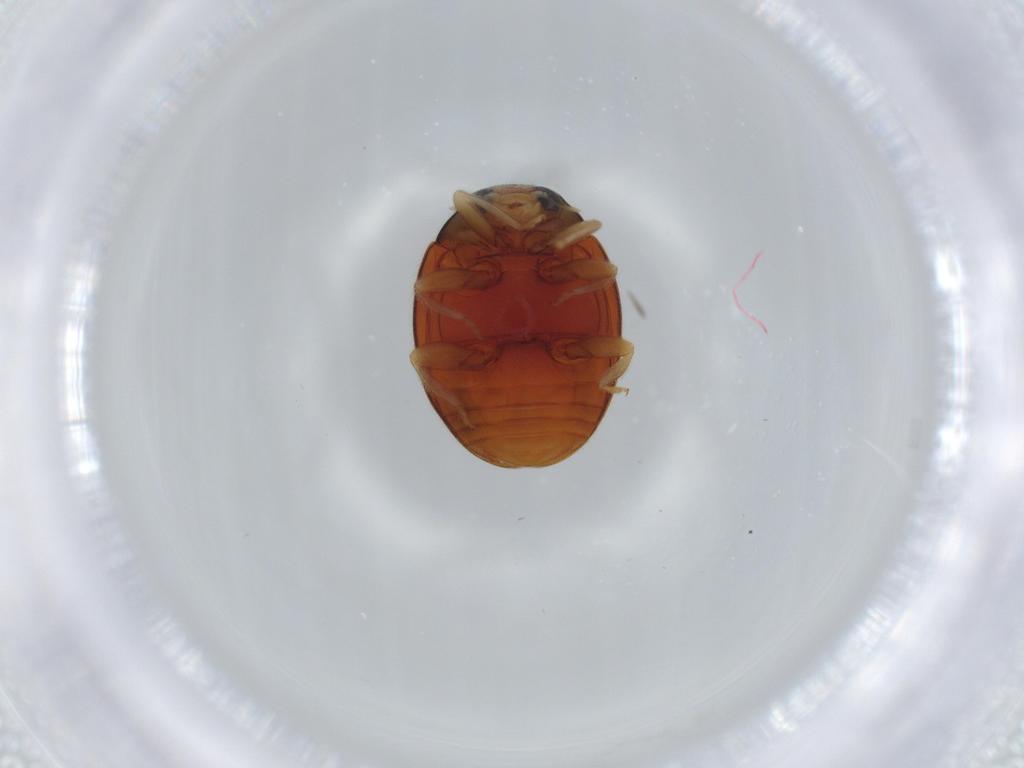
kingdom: Animalia
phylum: Arthropoda
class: Insecta
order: Coleoptera
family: Coccinellidae
